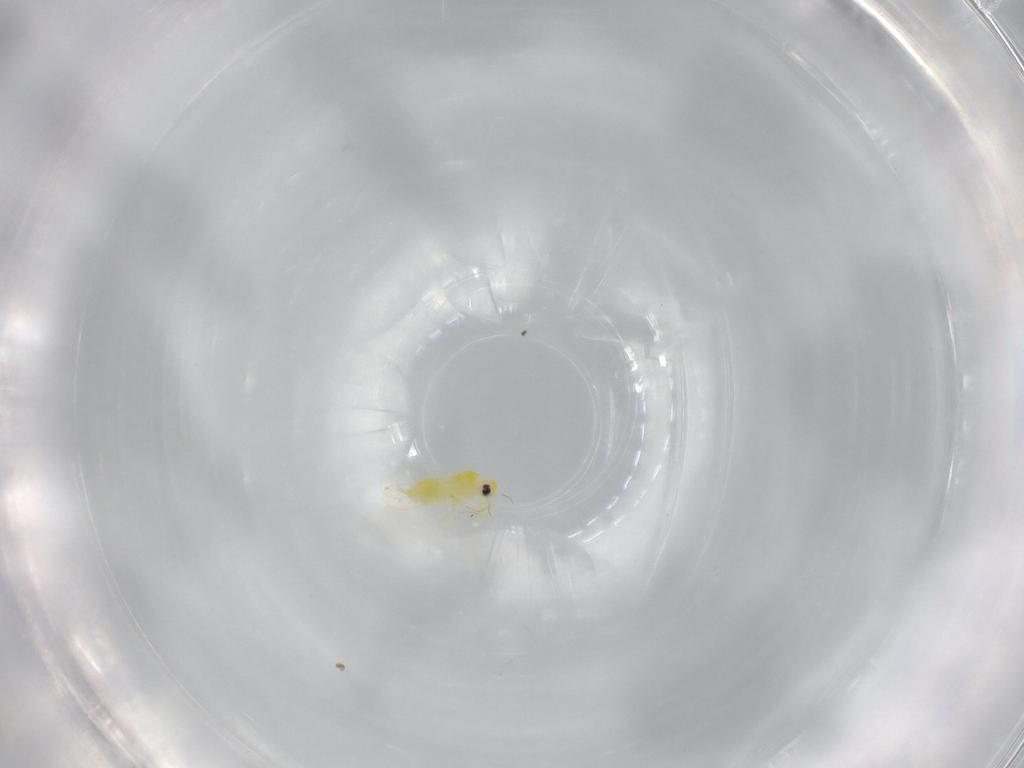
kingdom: Animalia
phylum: Arthropoda
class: Insecta
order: Hemiptera
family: Aleyrodidae
